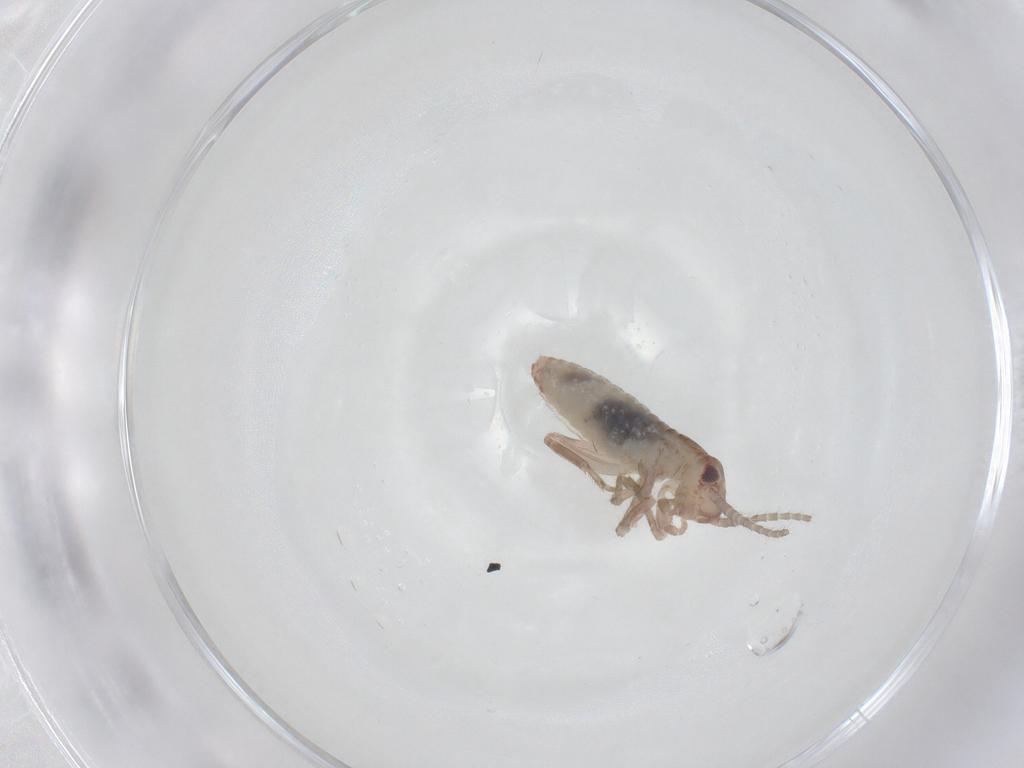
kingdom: Animalia
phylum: Arthropoda
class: Insecta
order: Orthoptera
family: Mogoplistidae
